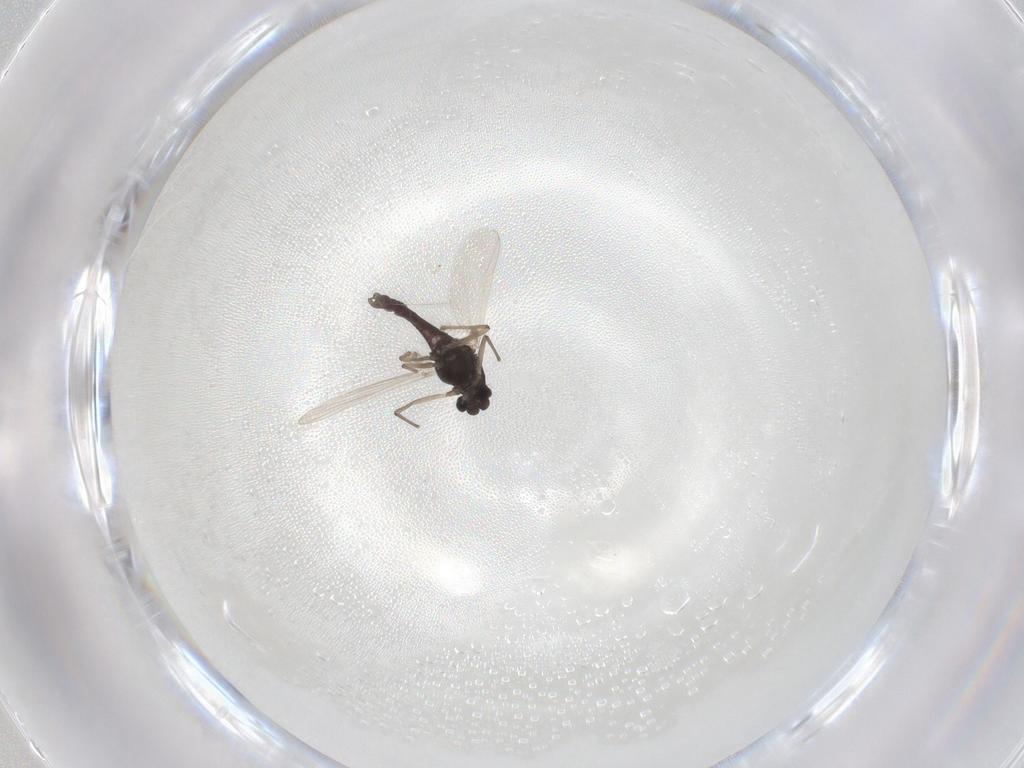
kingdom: Animalia
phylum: Arthropoda
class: Insecta
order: Diptera
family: Chironomidae
